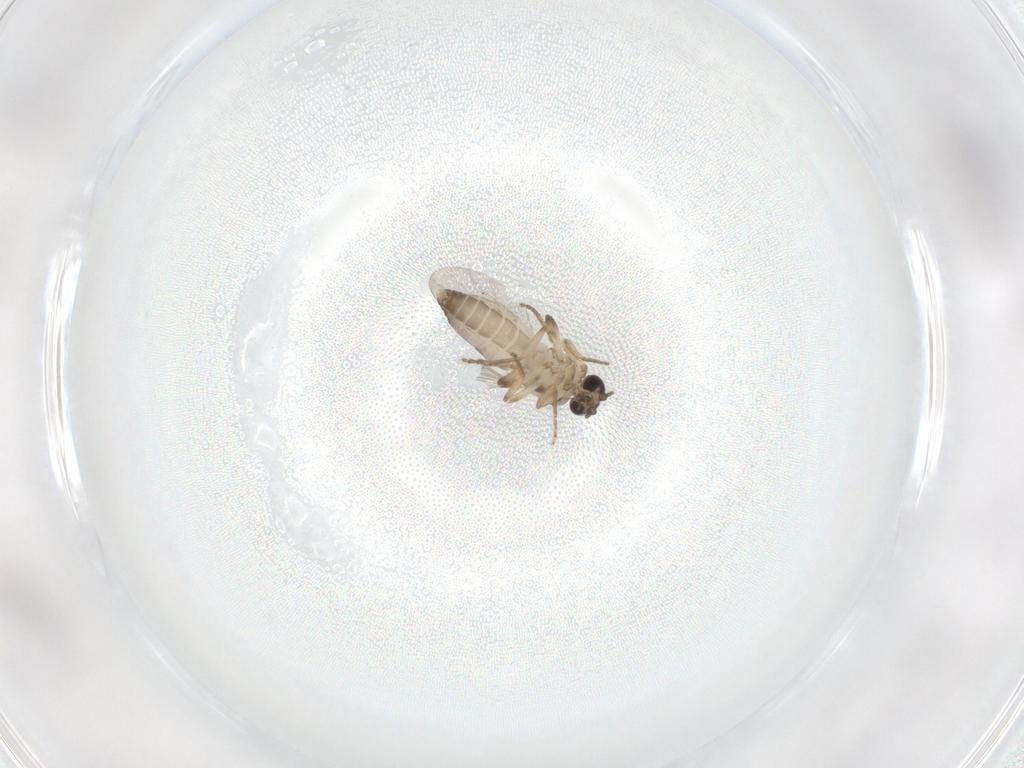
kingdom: Animalia
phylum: Arthropoda
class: Insecta
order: Diptera
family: Ceratopogonidae
